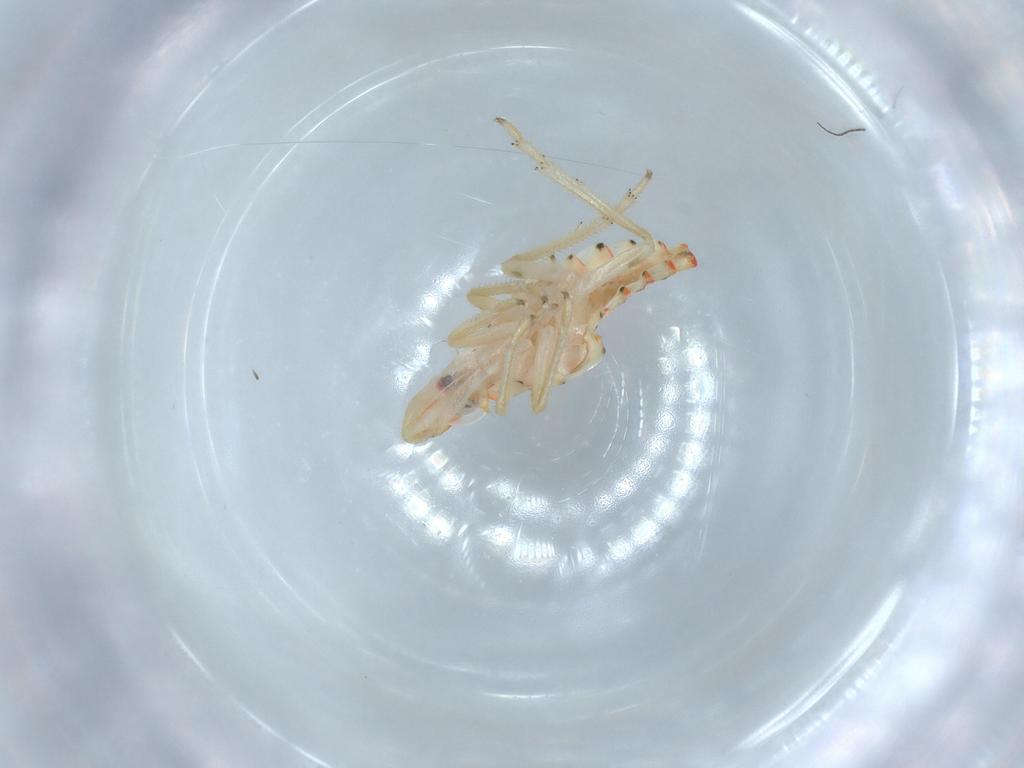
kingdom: Animalia
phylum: Arthropoda
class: Insecta
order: Hemiptera
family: Tropiduchidae
